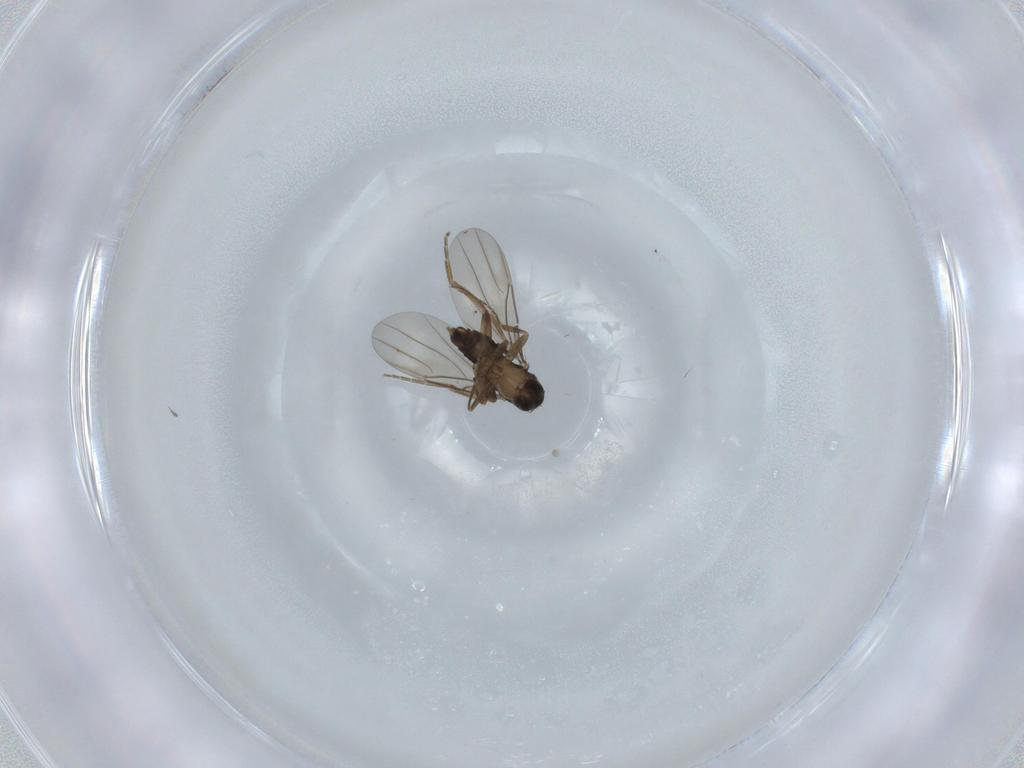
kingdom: Animalia
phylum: Arthropoda
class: Insecta
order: Diptera
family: Phoridae
